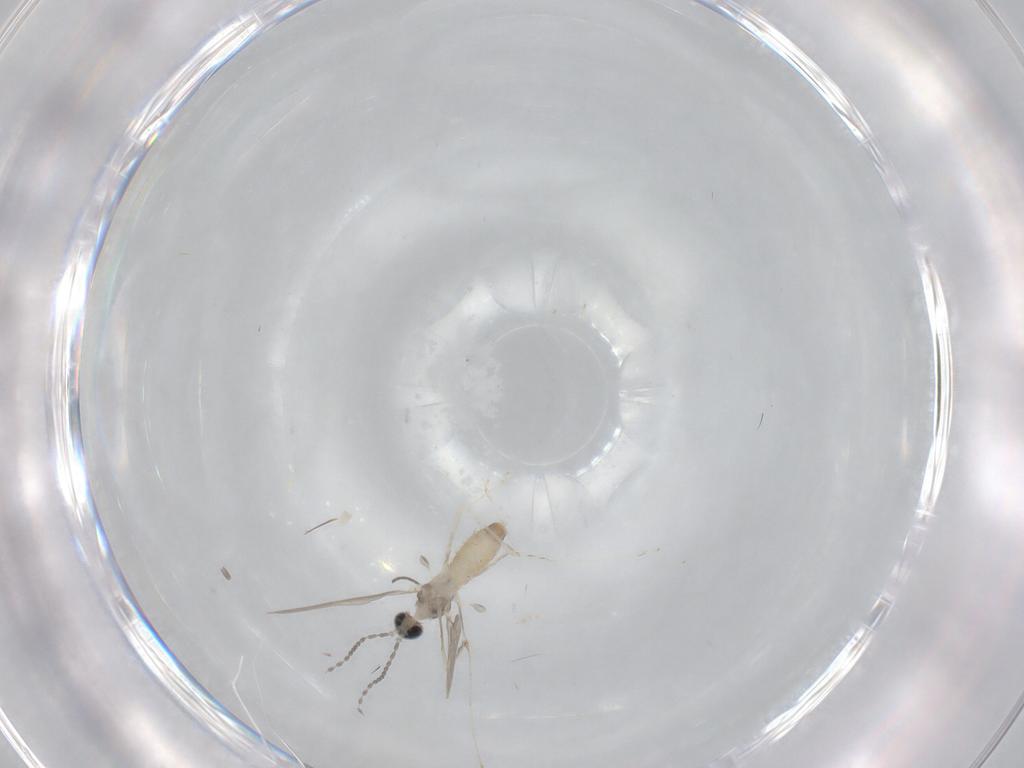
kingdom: Animalia
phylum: Arthropoda
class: Insecta
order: Diptera
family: Cecidomyiidae
